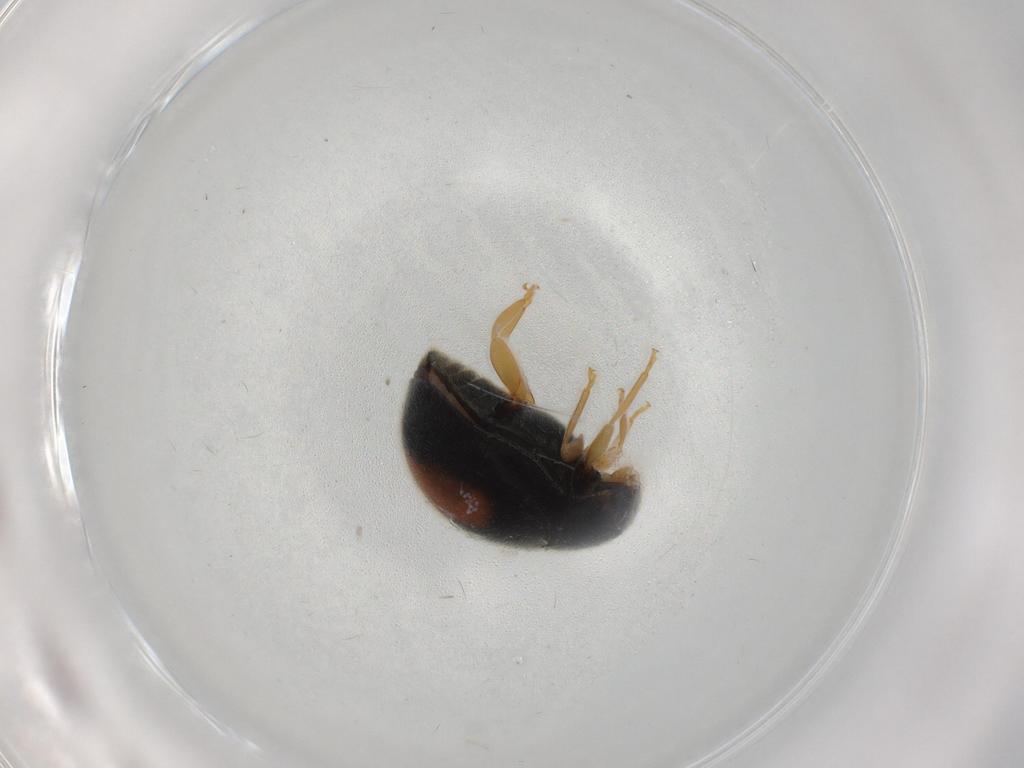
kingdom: Animalia
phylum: Arthropoda
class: Insecta
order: Coleoptera
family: Coccinellidae
